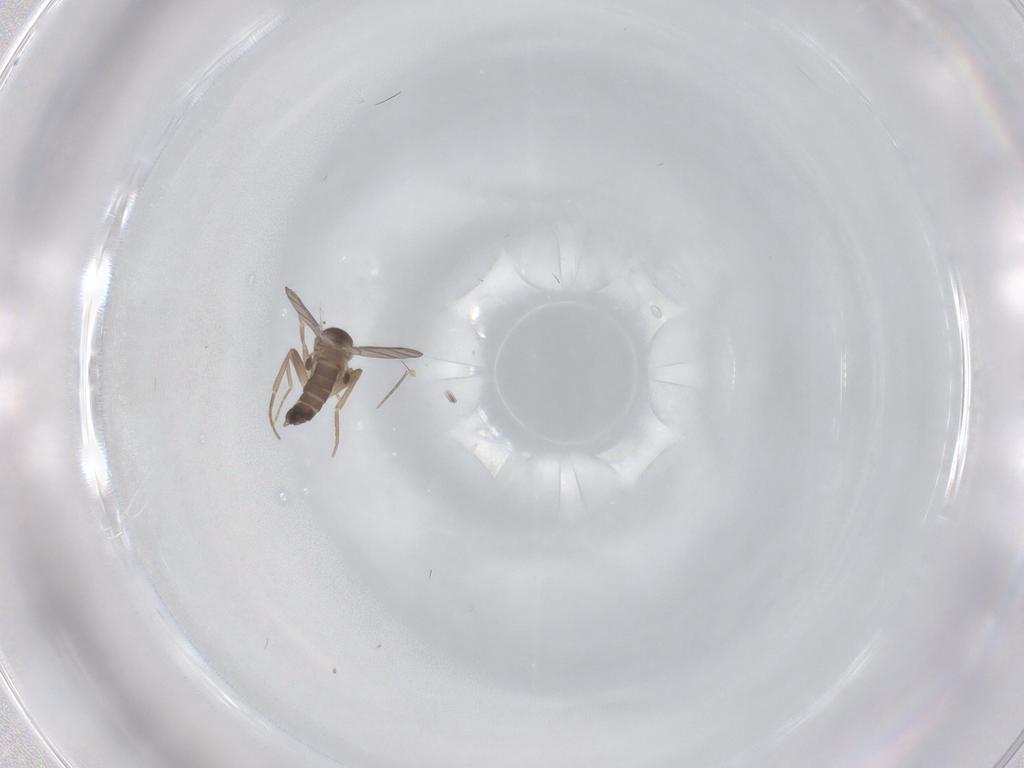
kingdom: Animalia
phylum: Arthropoda
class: Insecta
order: Diptera
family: Phoridae
